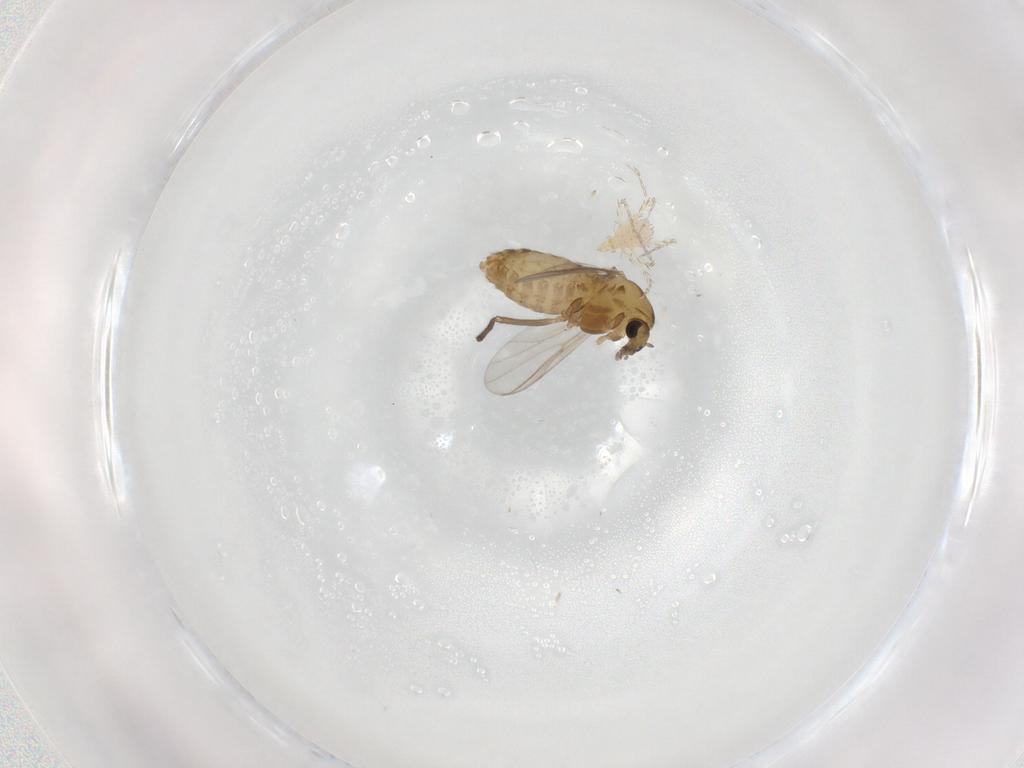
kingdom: Animalia
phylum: Arthropoda
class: Insecta
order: Diptera
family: Chironomidae
